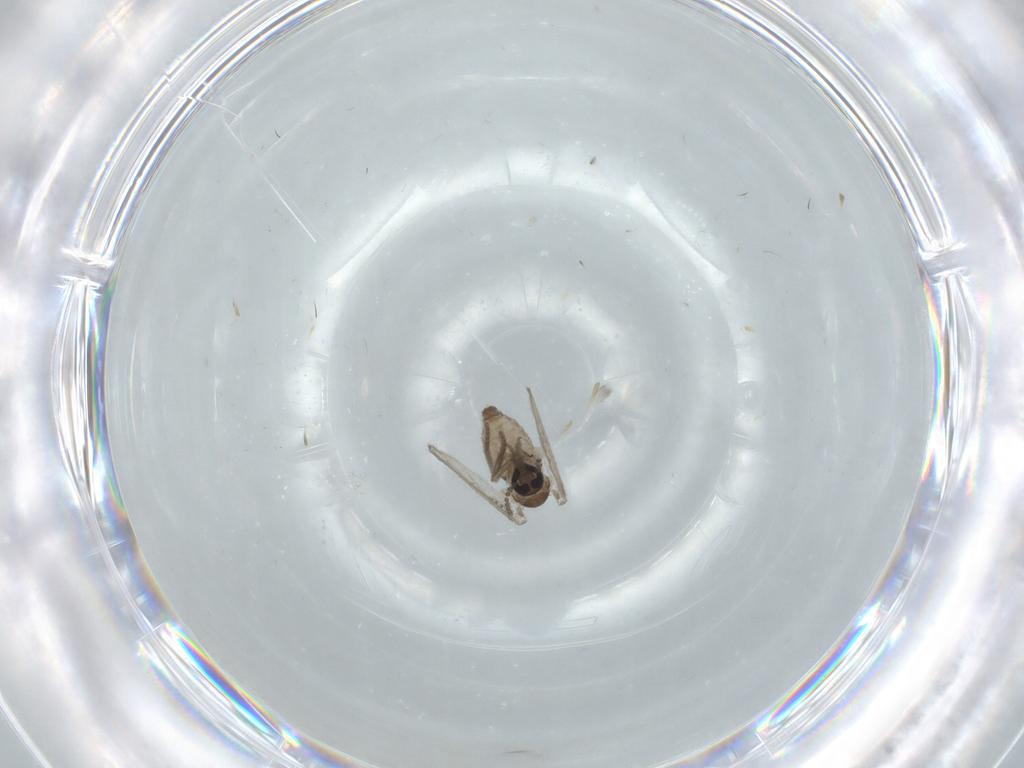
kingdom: Animalia
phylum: Arthropoda
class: Insecta
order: Diptera
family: Psychodidae
